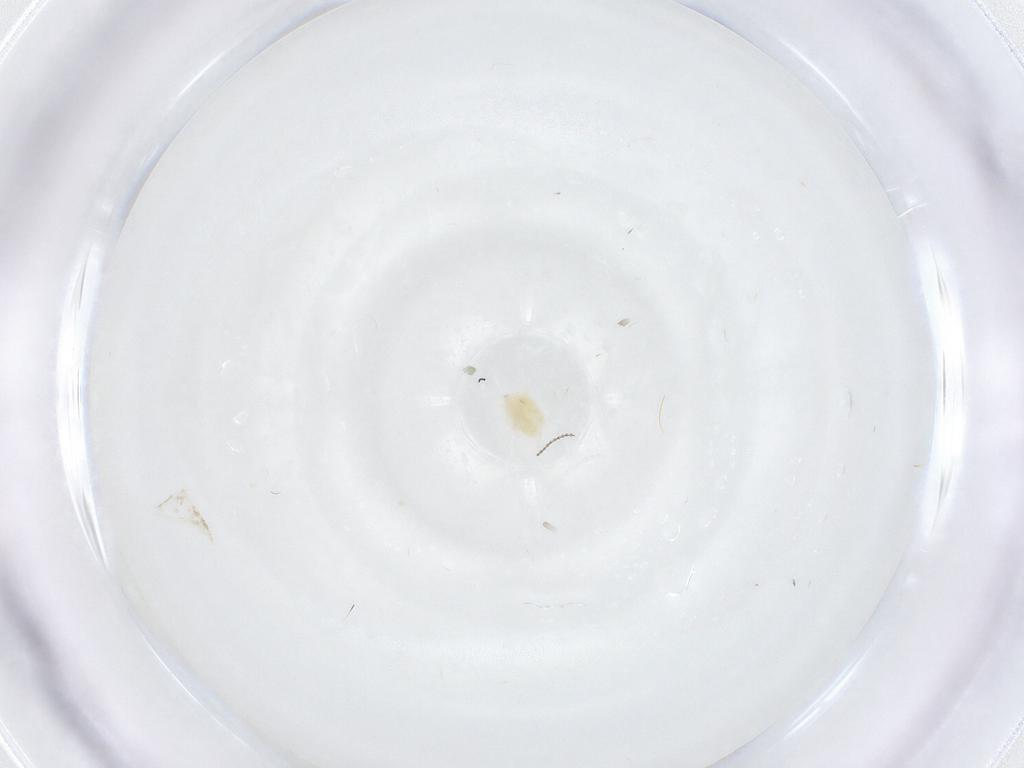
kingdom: Animalia
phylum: Arthropoda
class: Arachnida
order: Trombidiformes
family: Eupodidae
